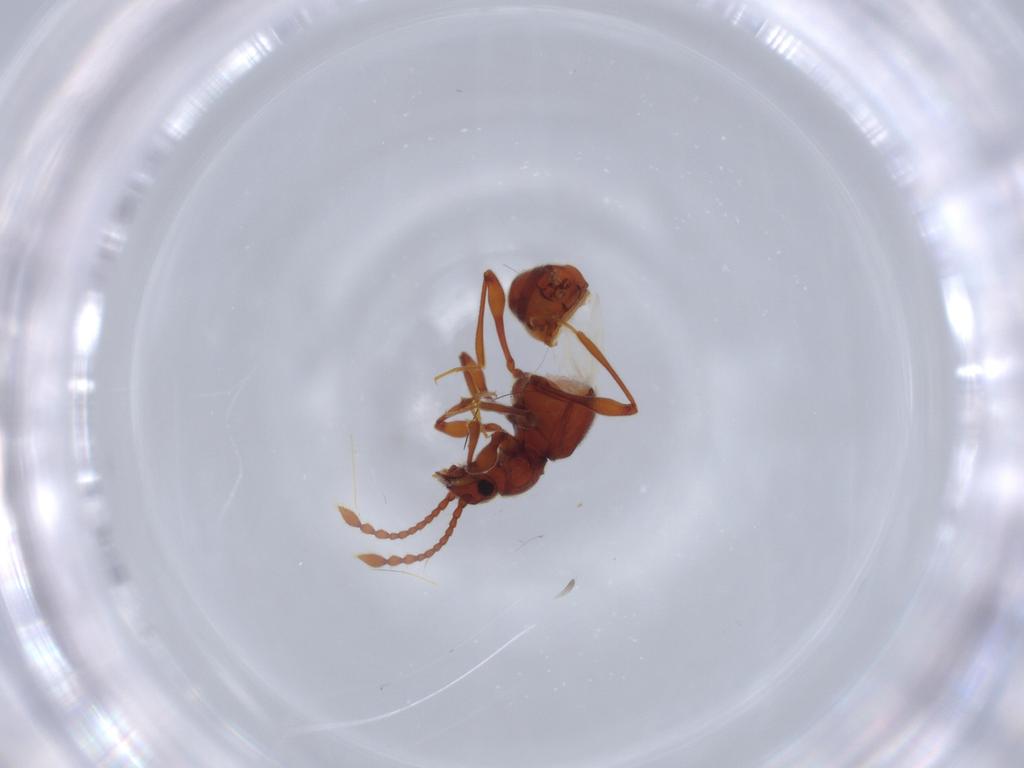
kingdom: Animalia
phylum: Arthropoda
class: Insecta
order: Coleoptera
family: Staphylinidae
